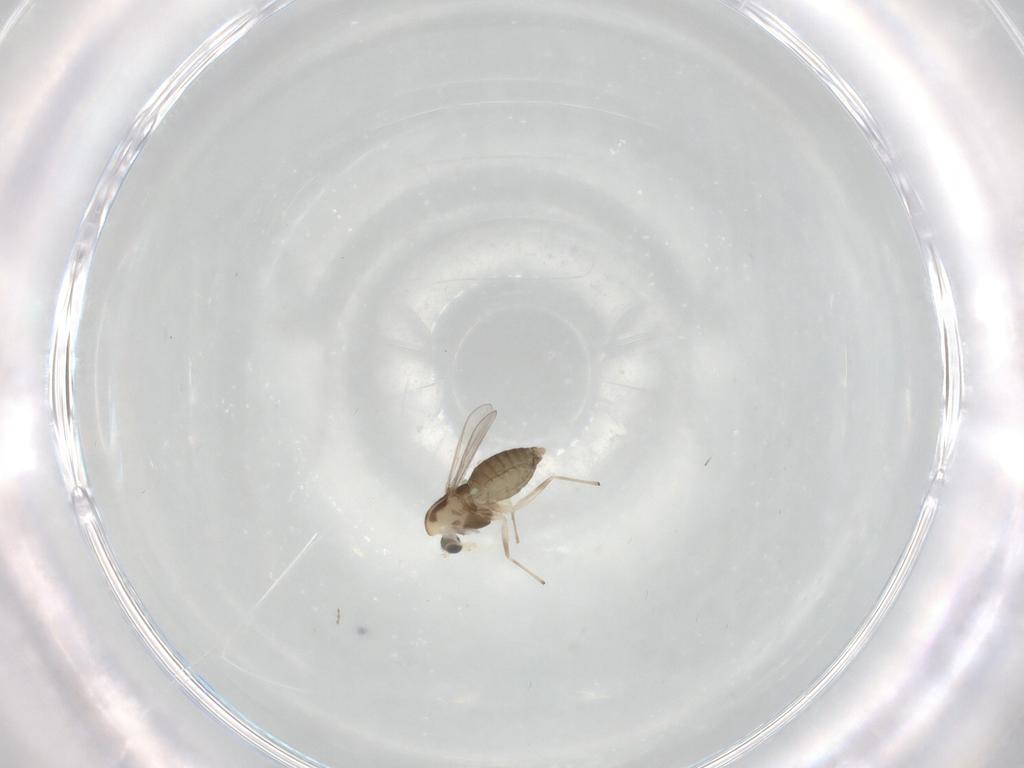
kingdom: Animalia
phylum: Arthropoda
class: Insecta
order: Diptera
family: Chironomidae
